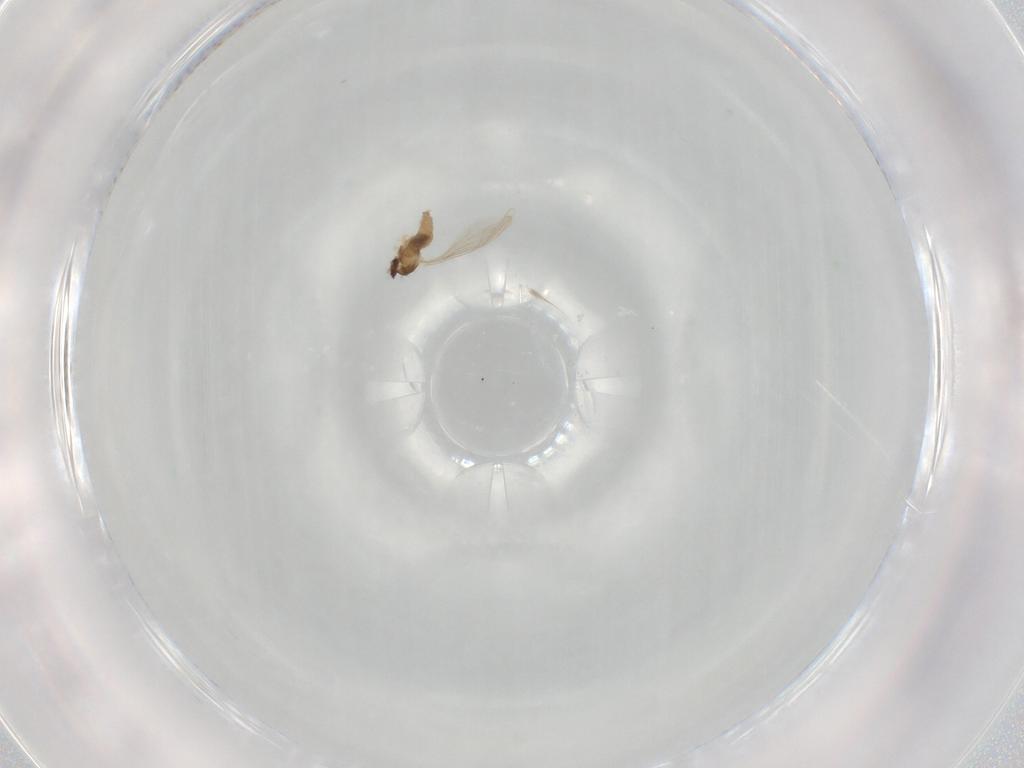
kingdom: Animalia
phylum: Arthropoda
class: Insecta
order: Diptera
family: Cecidomyiidae
